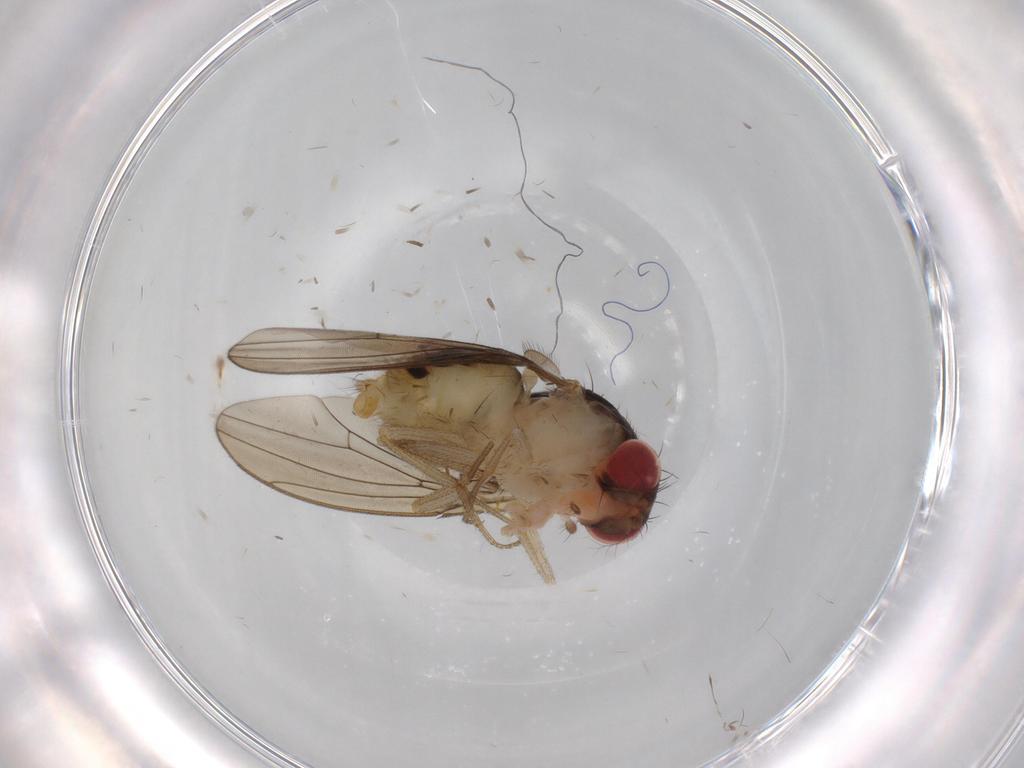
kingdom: Animalia
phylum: Arthropoda
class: Insecta
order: Diptera
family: Drosophilidae
